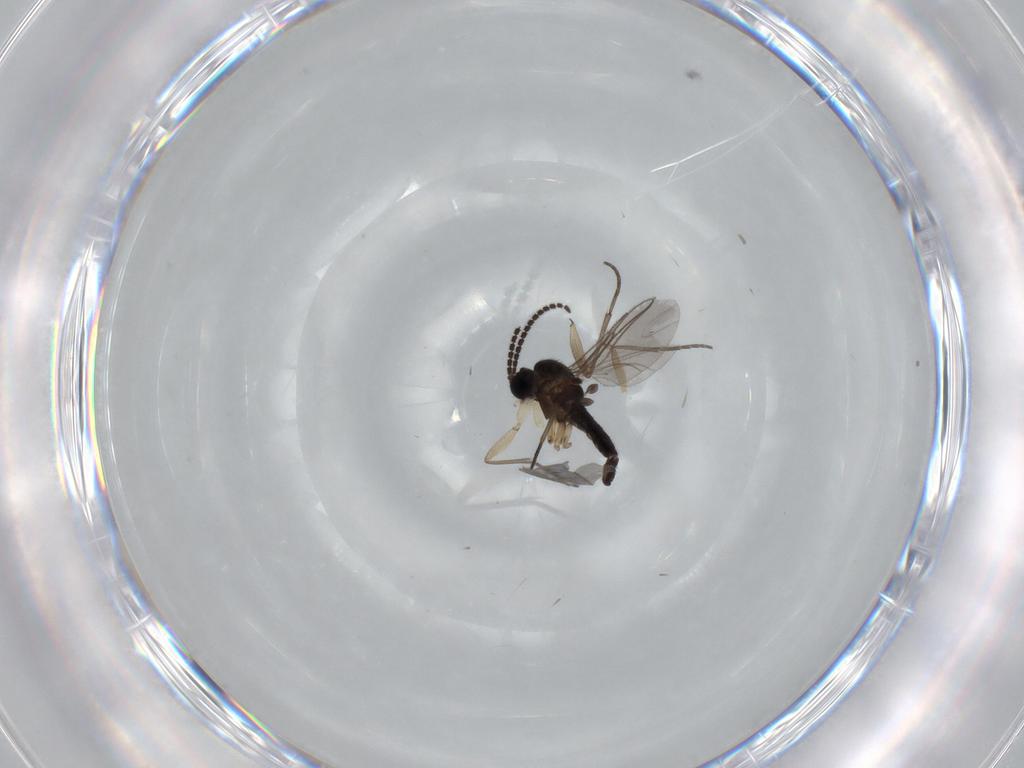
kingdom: Animalia
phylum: Arthropoda
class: Insecta
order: Diptera
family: Sciaridae
